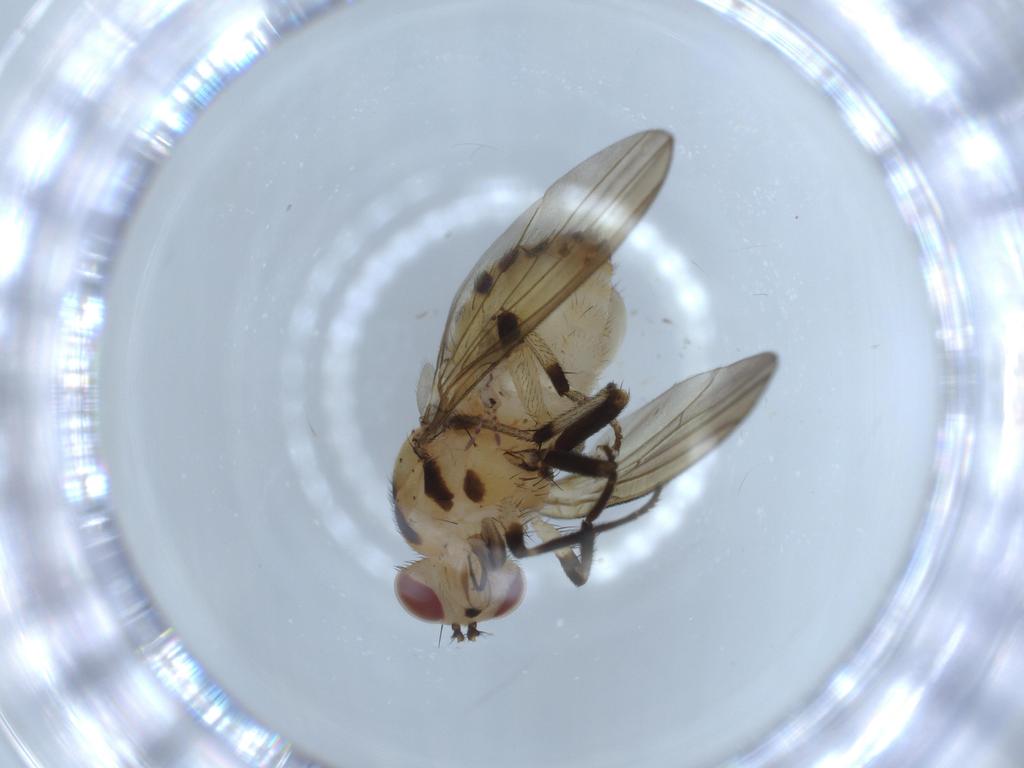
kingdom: Animalia
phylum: Arthropoda
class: Insecta
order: Diptera
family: Lauxaniidae
